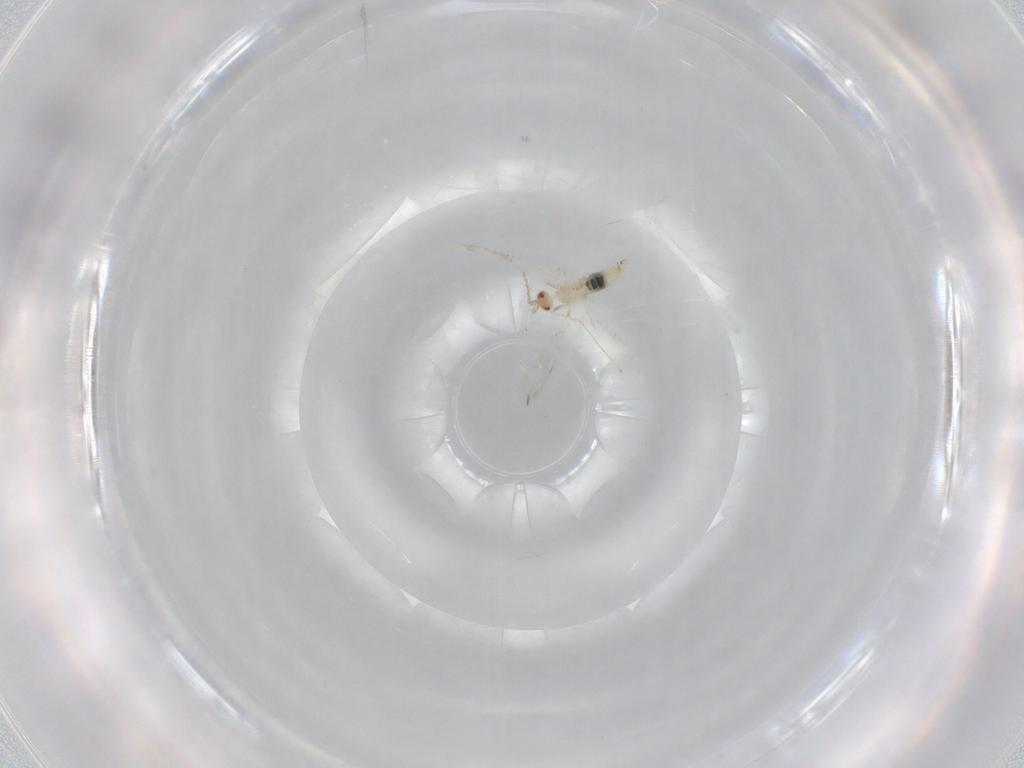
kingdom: Animalia
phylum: Arthropoda
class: Insecta
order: Diptera
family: Cecidomyiidae
